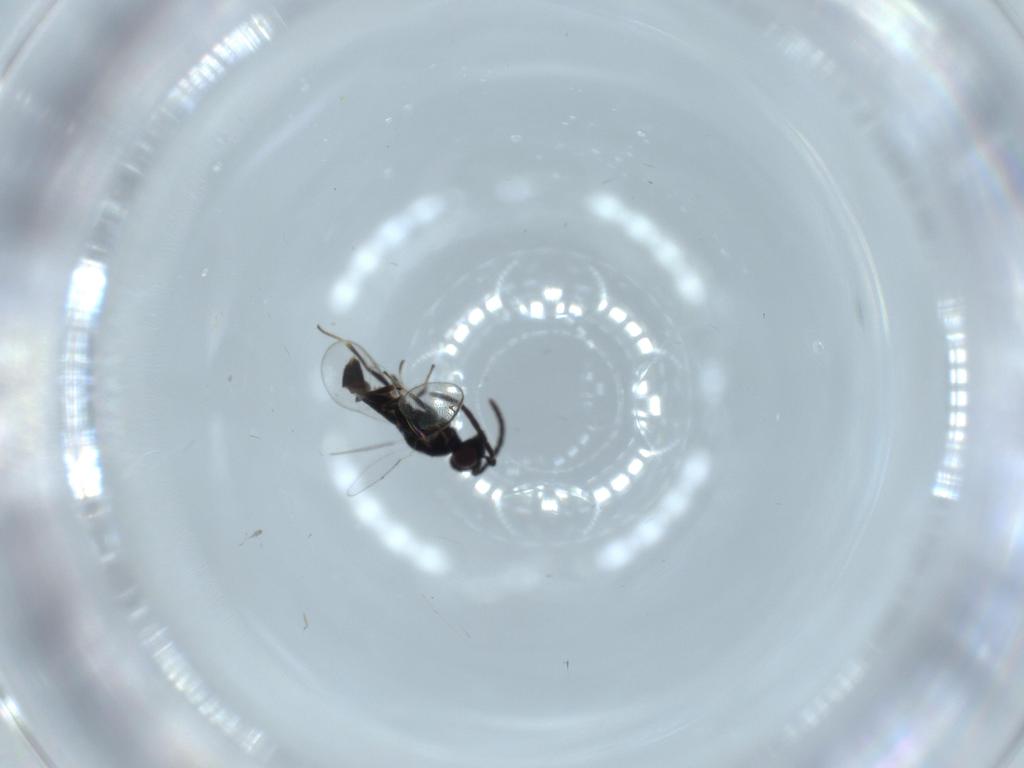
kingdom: Animalia
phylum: Arthropoda
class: Insecta
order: Hymenoptera
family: Eupelmidae
